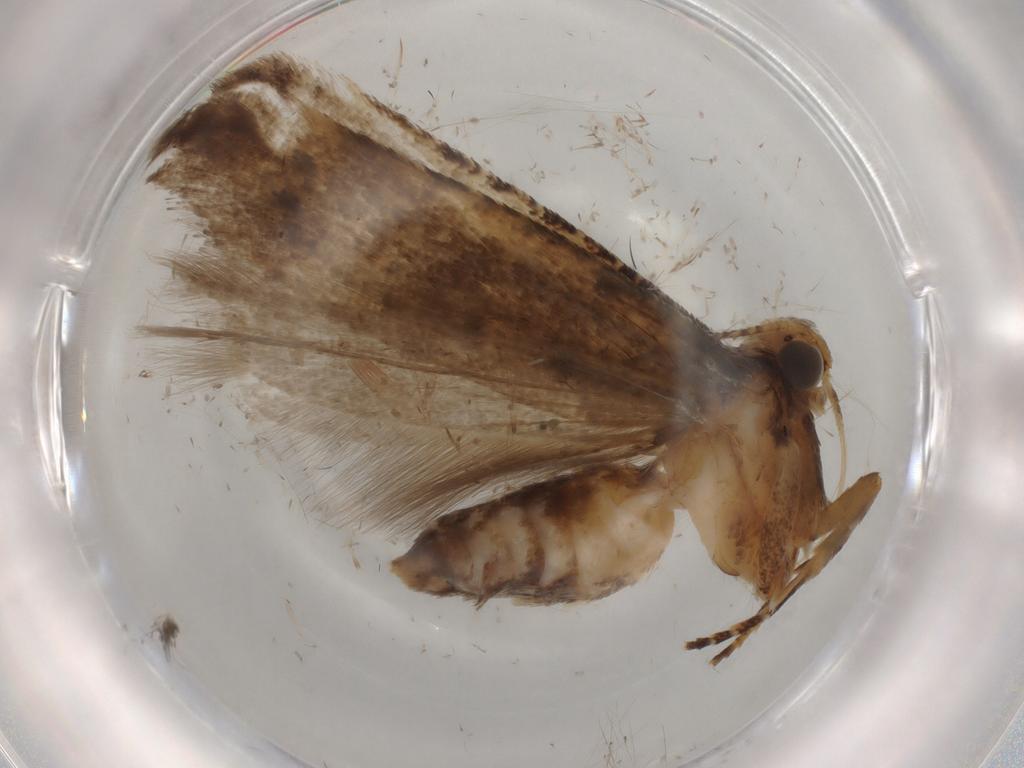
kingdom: Animalia
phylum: Arthropoda
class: Insecta
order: Lepidoptera
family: Gelechiidae
